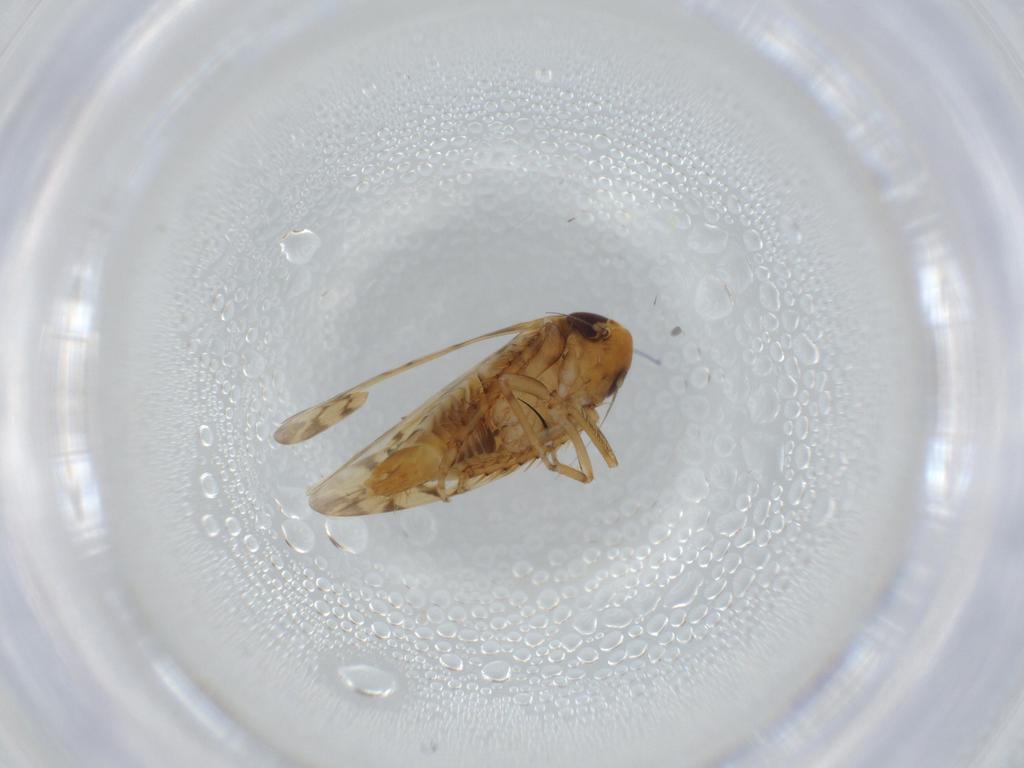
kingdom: Animalia
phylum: Arthropoda
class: Insecta
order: Hemiptera
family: Cicadellidae
